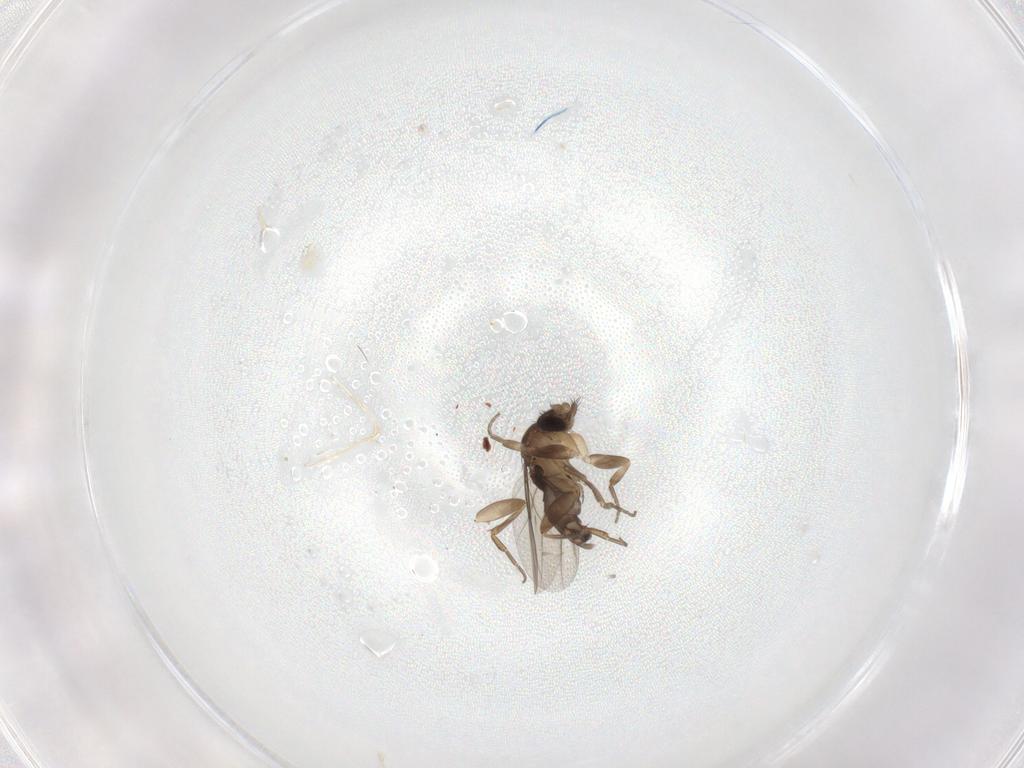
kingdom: Animalia
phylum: Arthropoda
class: Insecta
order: Diptera
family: Phoridae
